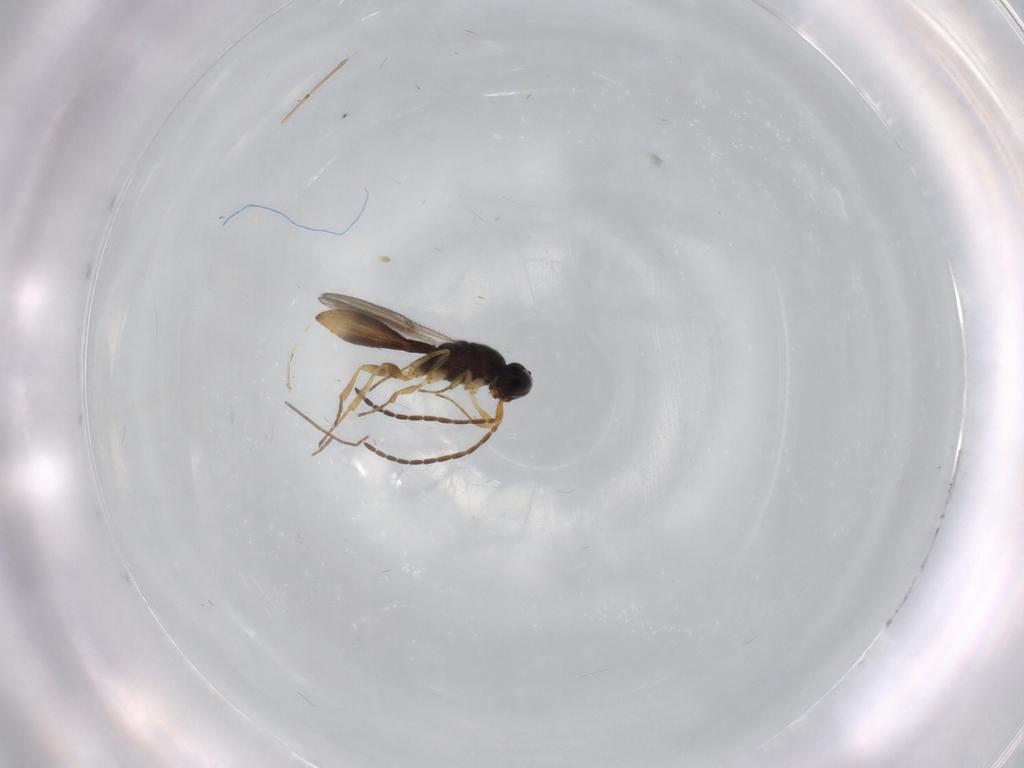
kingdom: Animalia
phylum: Arthropoda
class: Insecta
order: Hymenoptera
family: Scelionidae
